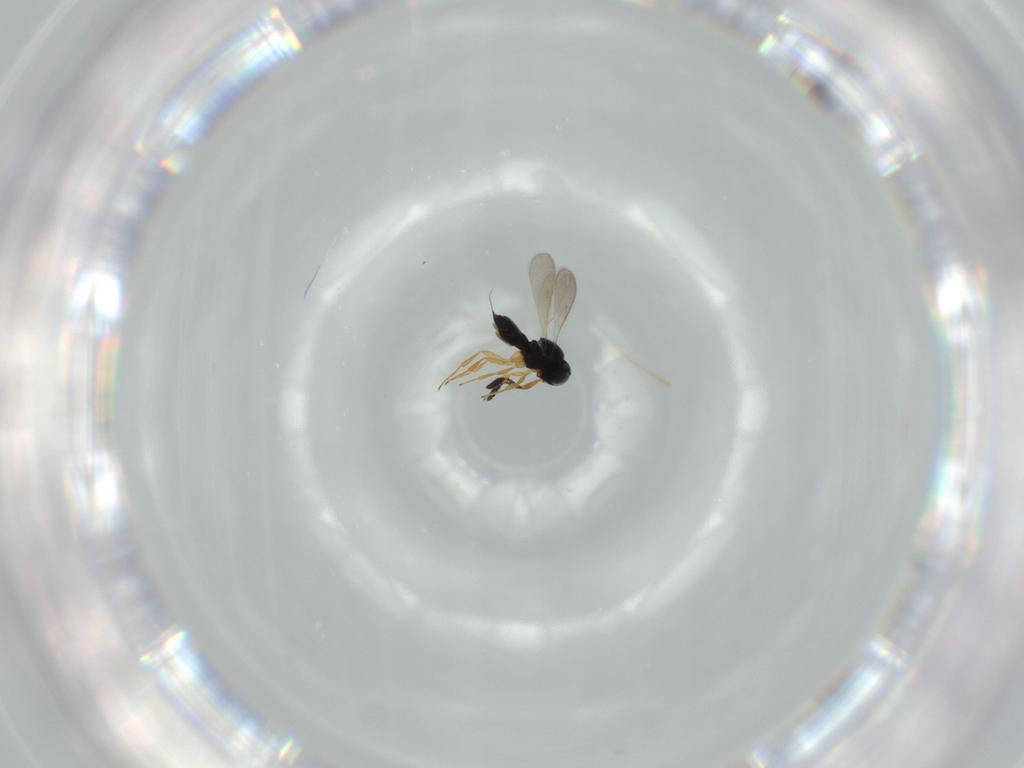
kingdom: Animalia
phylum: Arthropoda
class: Insecta
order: Hymenoptera
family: Scelionidae
